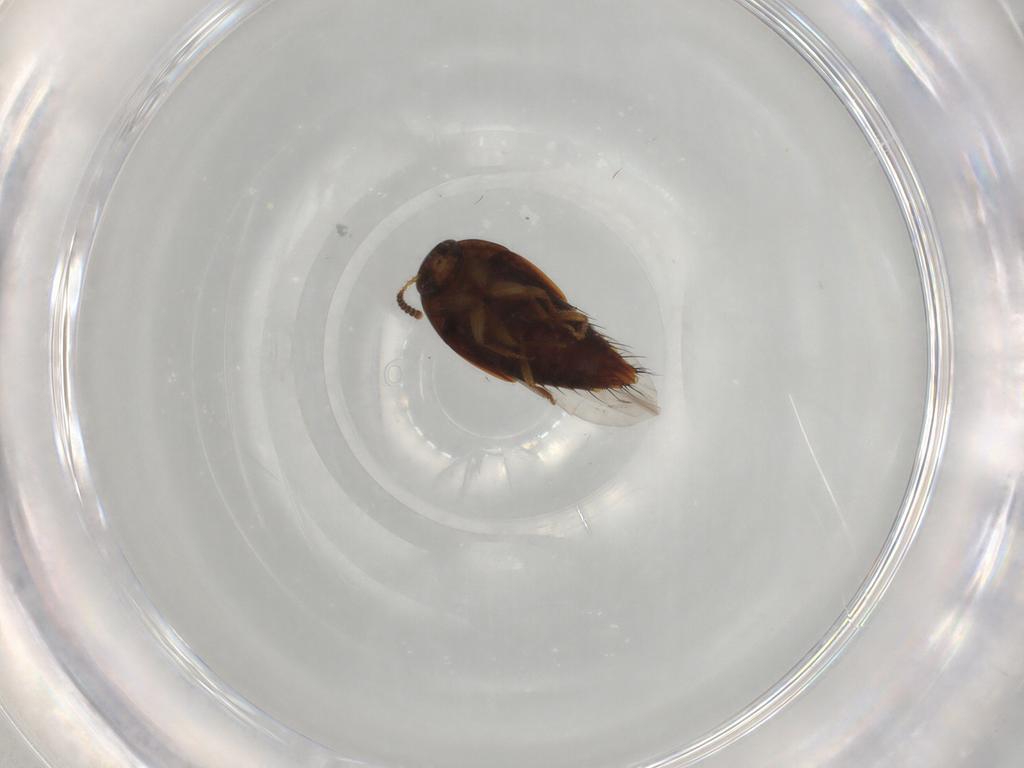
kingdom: Animalia
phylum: Arthropoda
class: Insecta
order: Coleoptera
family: Staphylinidae
